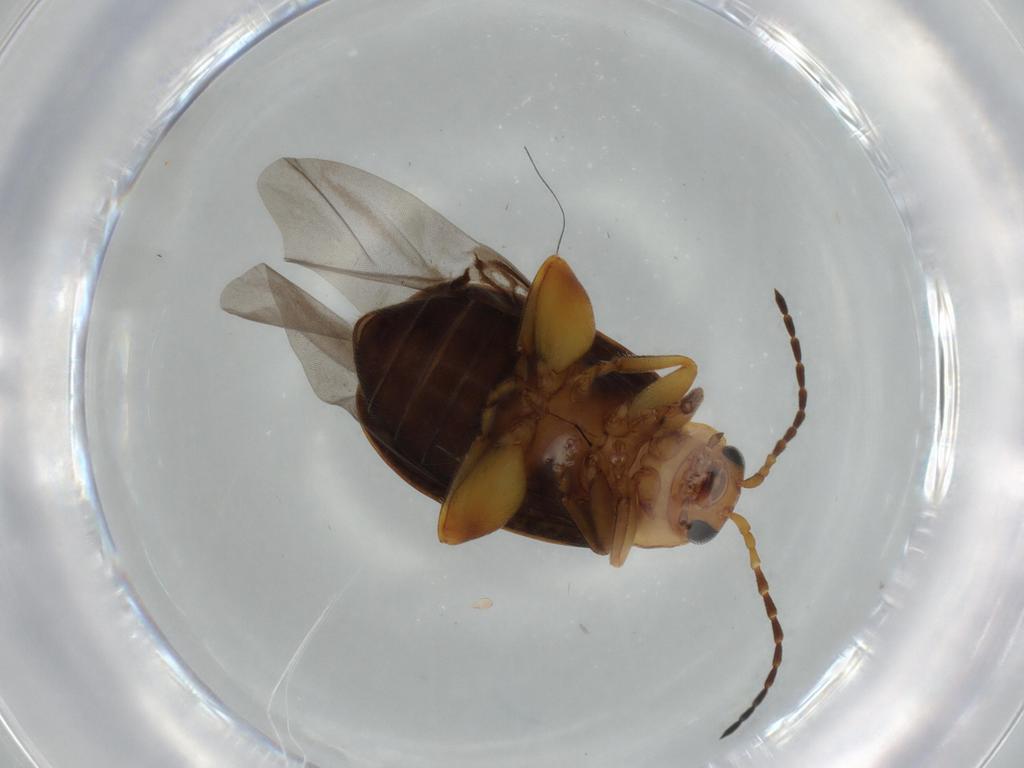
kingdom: Animalia
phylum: Arthropoda
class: Insecta
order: Coleoptera
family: Chrysomelidae
